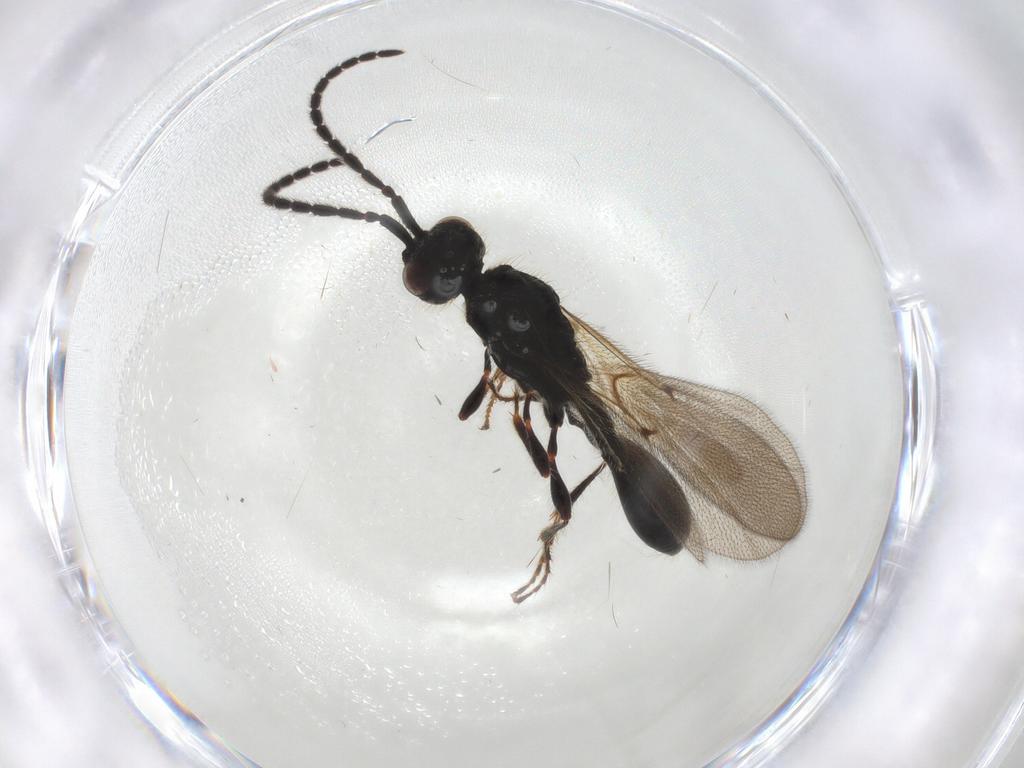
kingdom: Animalia
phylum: Arthropoda
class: Insecta
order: Hymenoptera
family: Diapriidae
